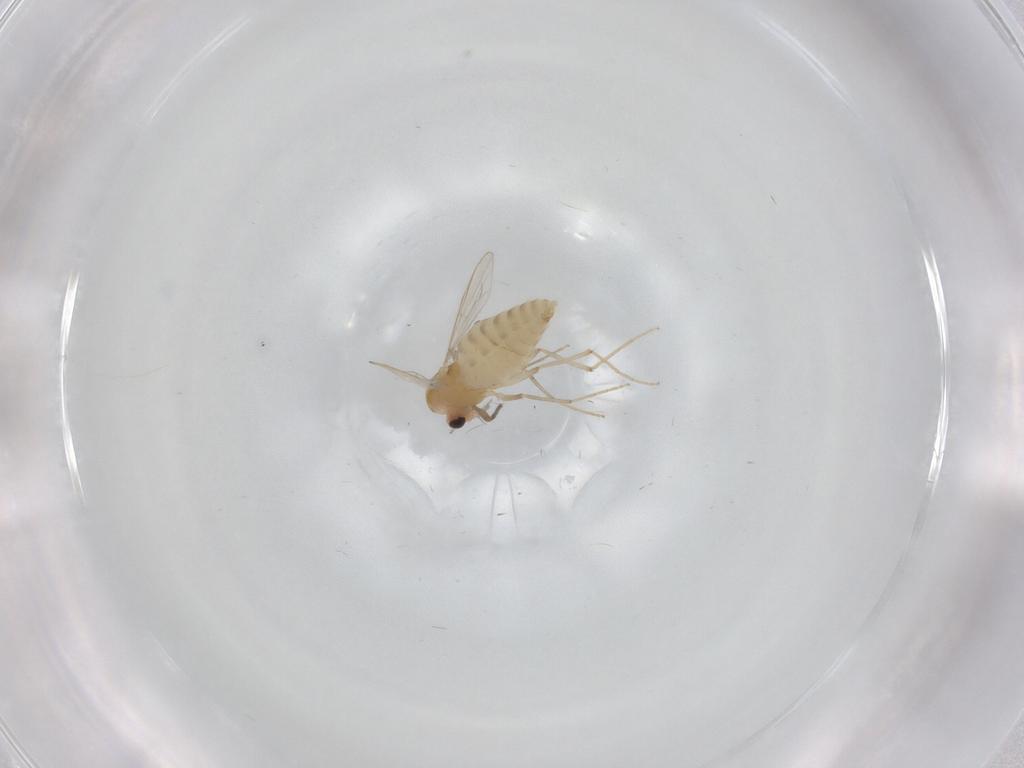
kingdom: Animalia
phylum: Arthropoda
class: Insecta
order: Diptera
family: Chironomidae
